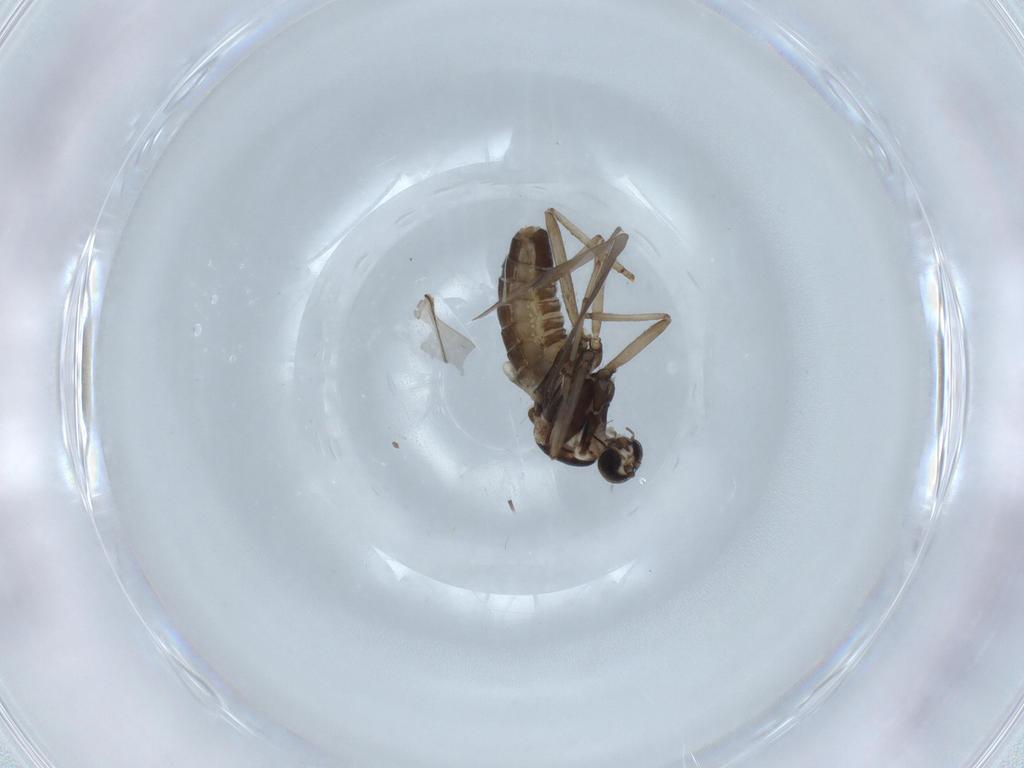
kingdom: Animalia
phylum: Arthropoda
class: Insecta
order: Diptera
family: Cecidomyiidae
